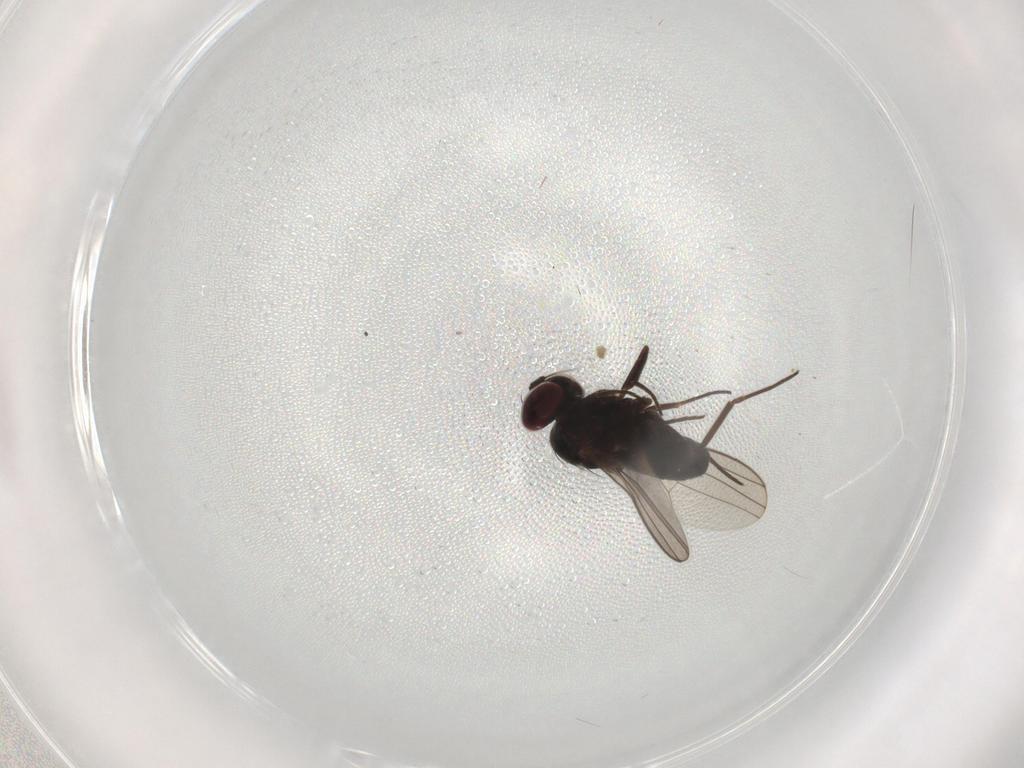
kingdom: Animalia
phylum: Arthropoda
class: Insecta
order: Diptera
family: Dolichopodidae
